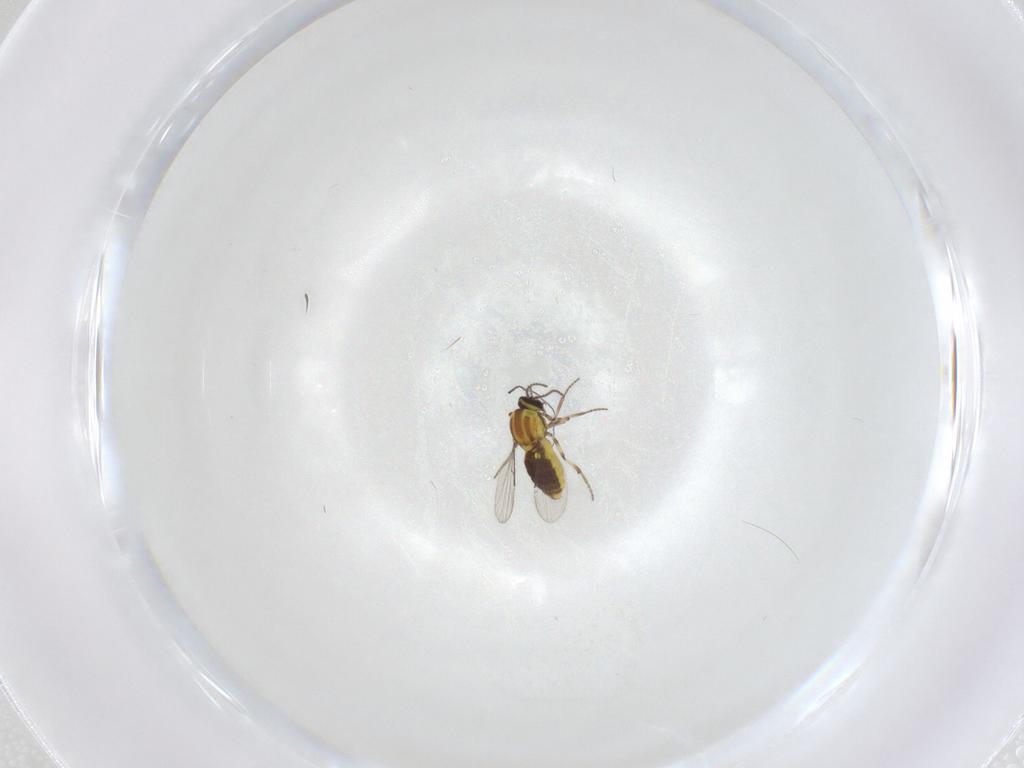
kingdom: Animalia
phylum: Arthropoda
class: Insecta
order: Diptera
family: Ceratopogonidae
